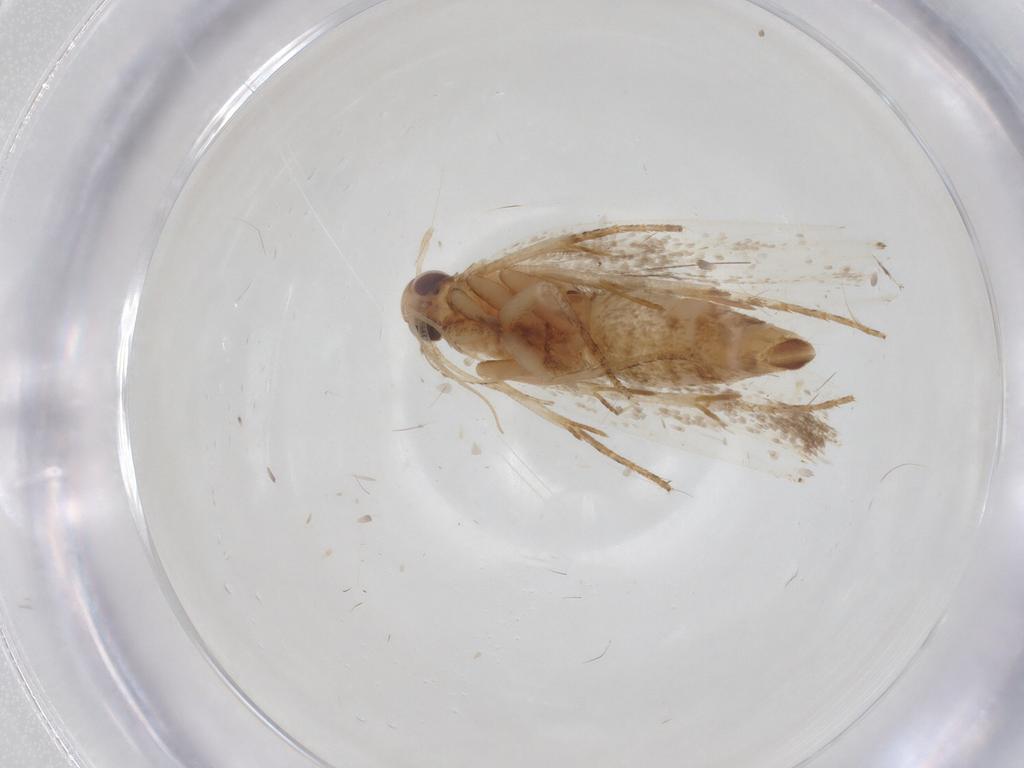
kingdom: Animalia
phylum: Arthropoda
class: Insecta
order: Lepidoptera
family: Gelechiidae
